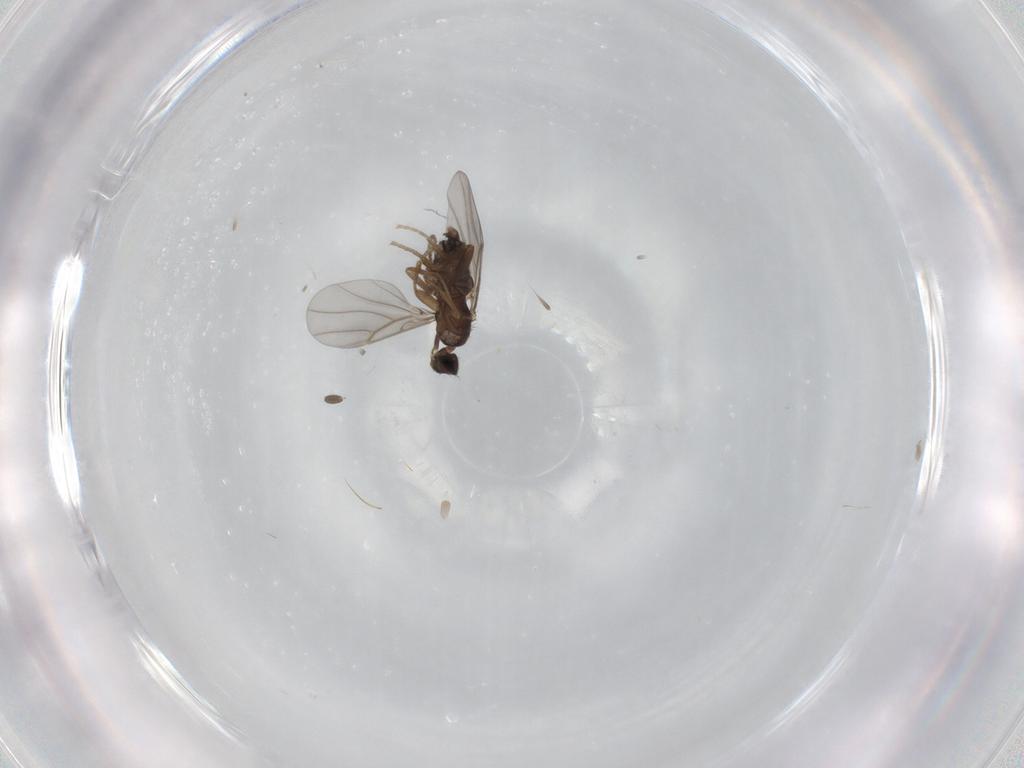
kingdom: Animalia
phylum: Arthropoda
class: Insecta
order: Diptera
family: Phoridae
